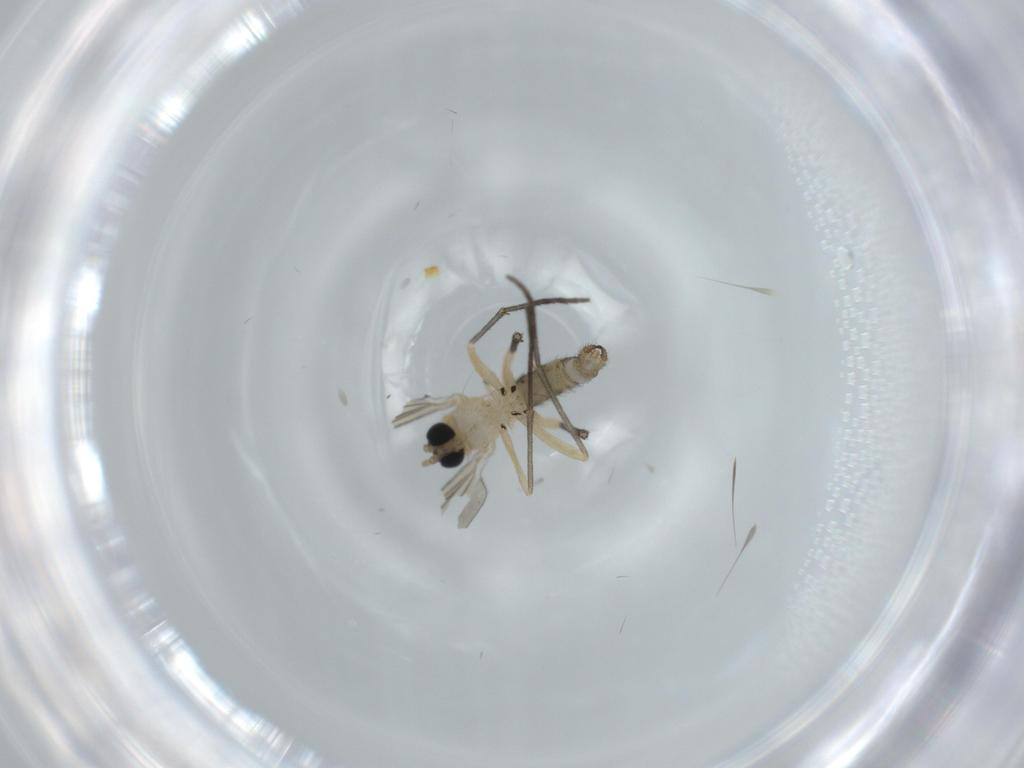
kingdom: Animalia
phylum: Arthropoda
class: Insecta
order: Diptera
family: Sciaridae
